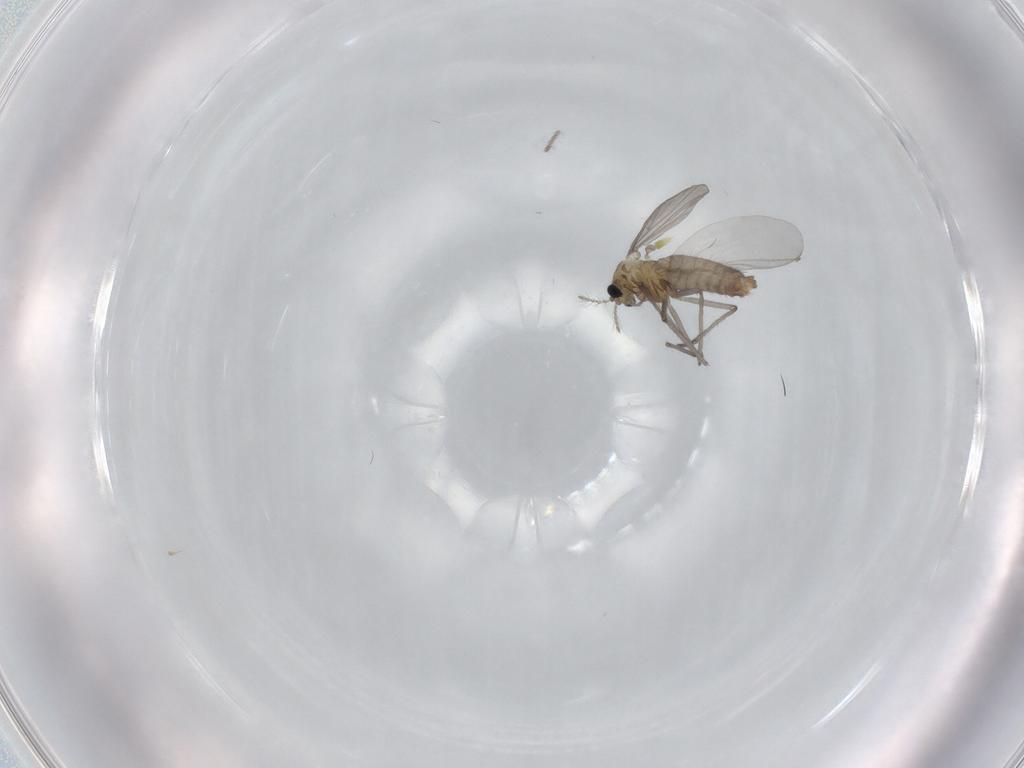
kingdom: Animalia
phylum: Arthropoda
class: Insecta
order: Diptera
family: Chironomidae
